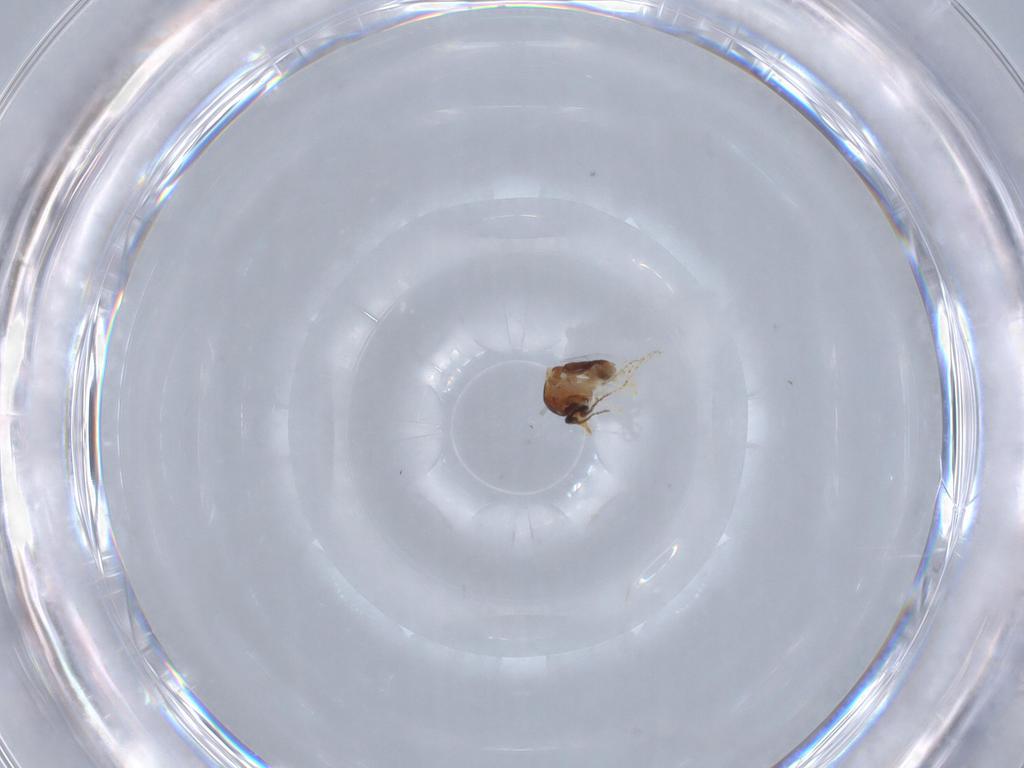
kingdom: Animalia
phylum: Arthropoda
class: Insecta
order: Diptera
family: Ceratopogonidae
